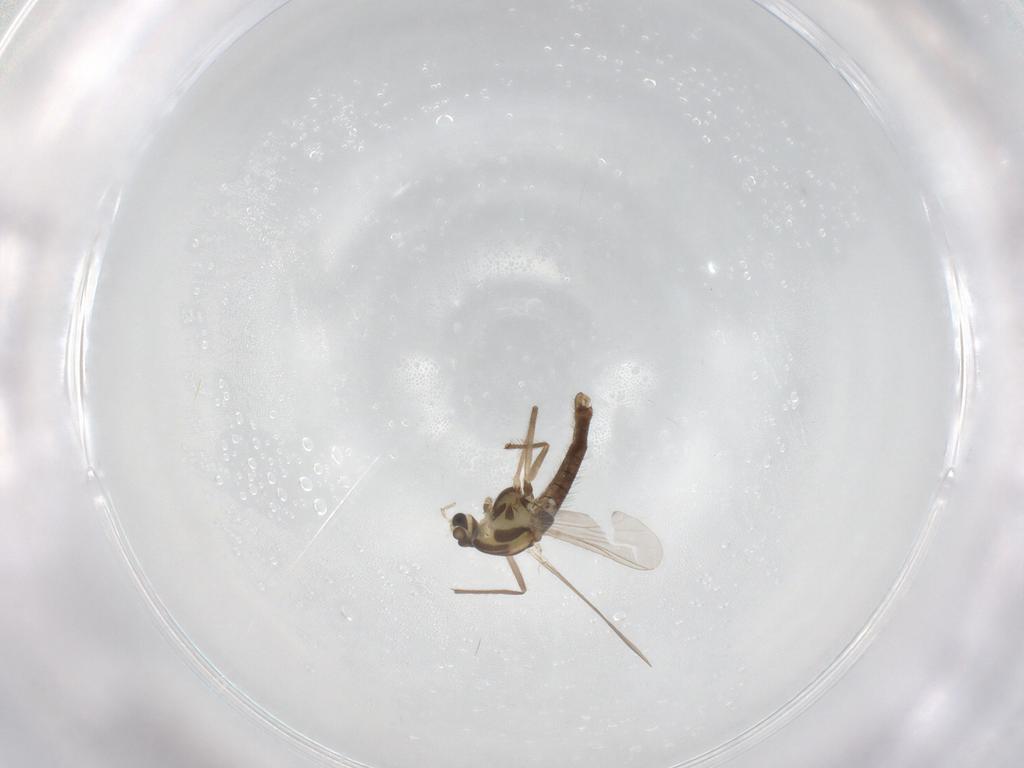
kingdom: Animalia
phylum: Arthropoda
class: Insecta
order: Diptera
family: Chironomidae
